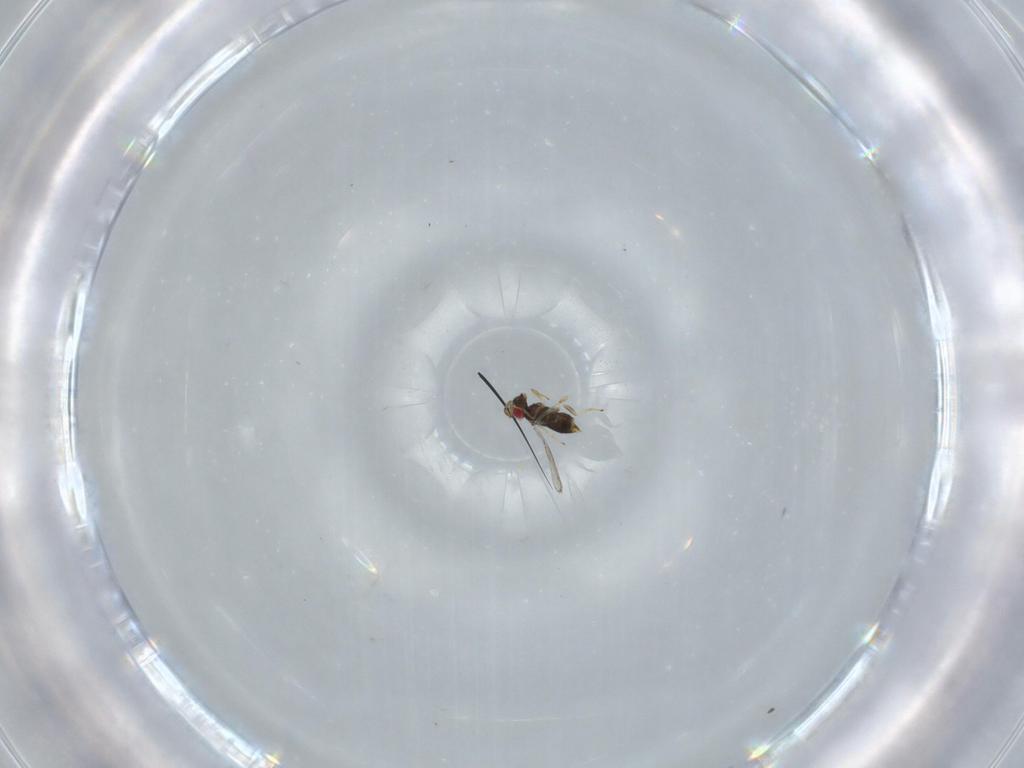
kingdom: Animalia
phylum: Arthropoda
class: Insecta
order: Hymenoptera
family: Azotidae
